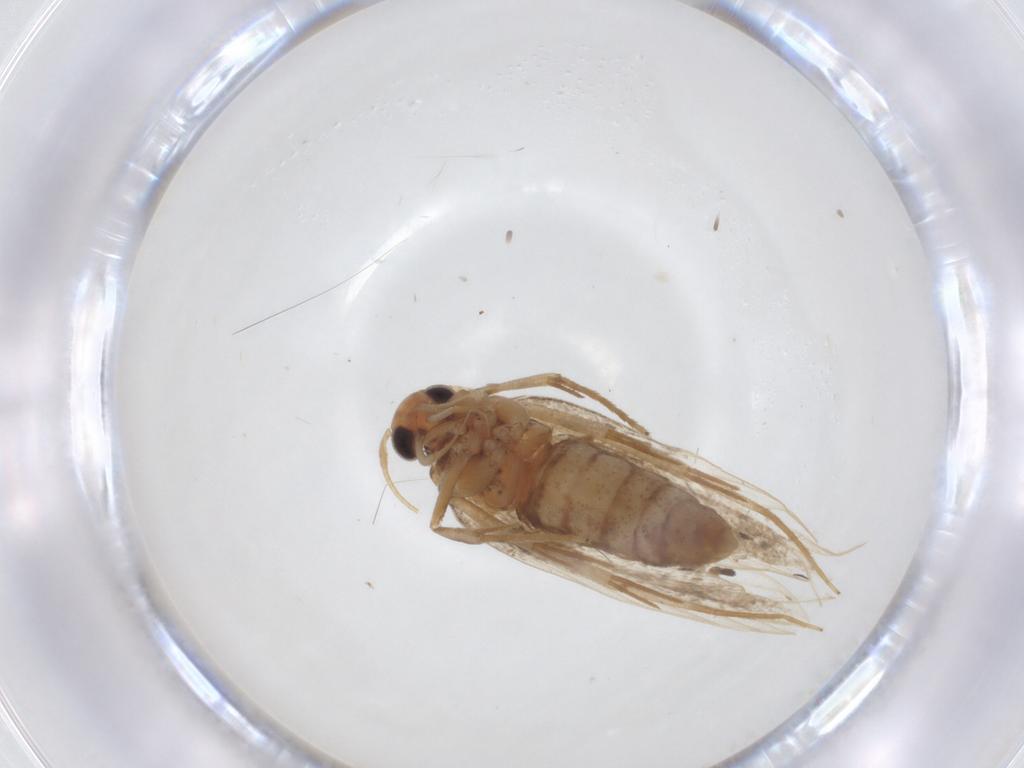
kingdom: Animalia
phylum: Arthropoda
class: Insecta
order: Lepidoptera
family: Lecithoceridae
